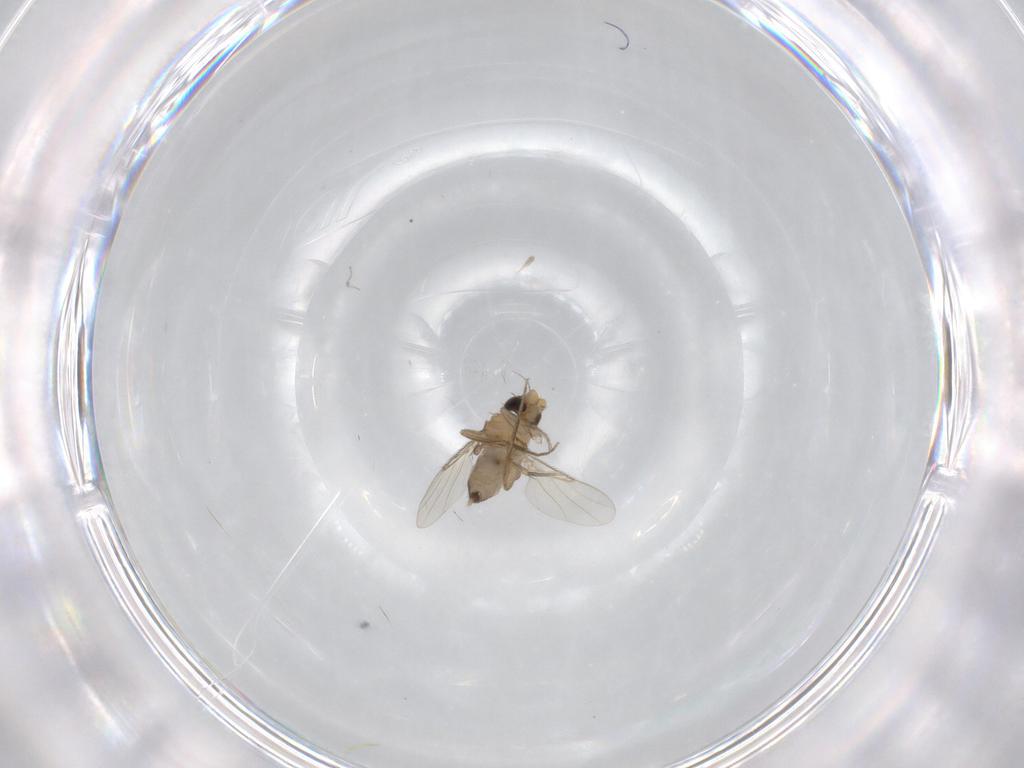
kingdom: Animalia
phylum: Arthropoda
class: Insecta
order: Diptera
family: Phoridae
